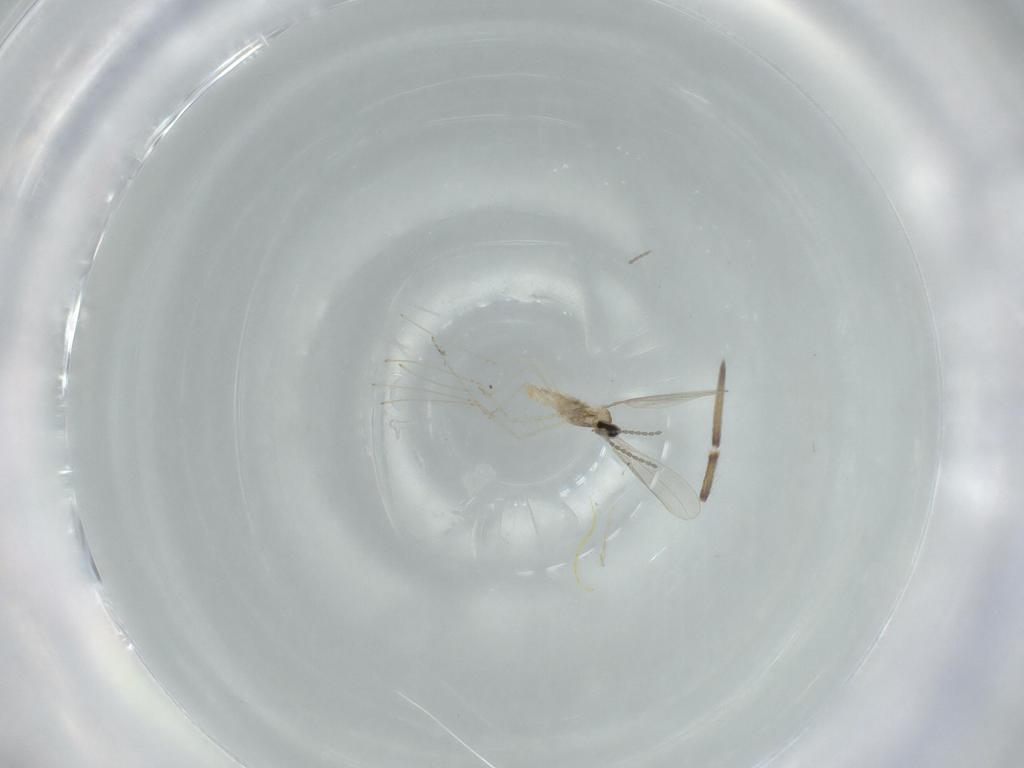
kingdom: Animalia
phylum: Arthropoda
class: Insecta
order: Diptera
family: Cecidomyiidae
